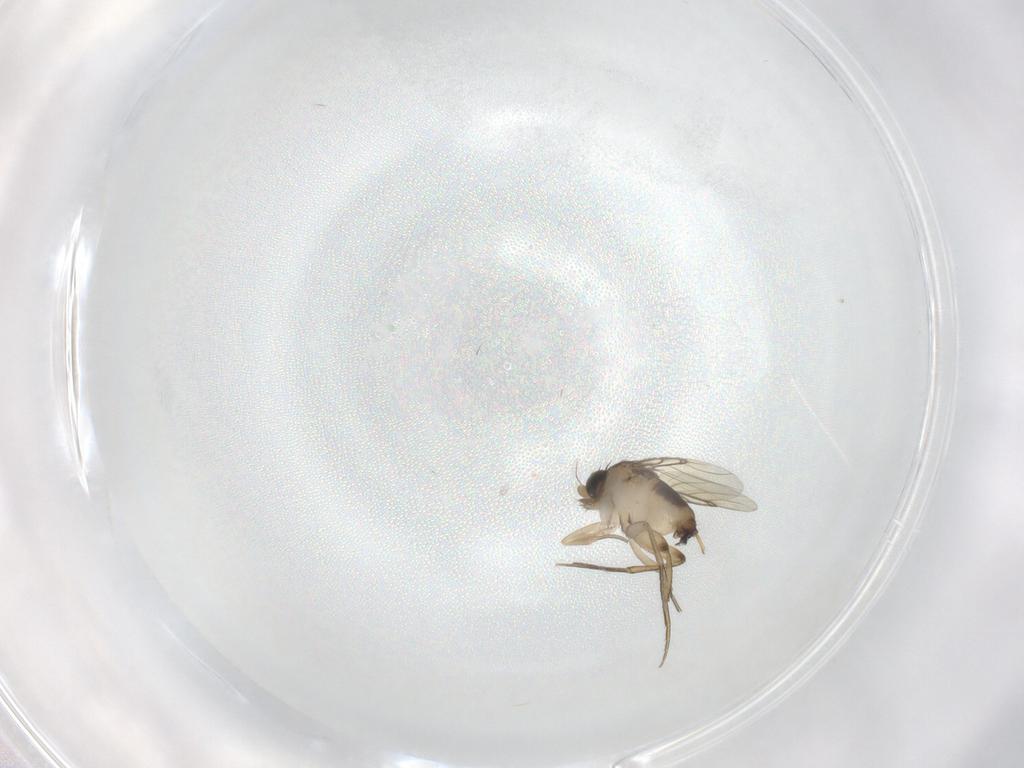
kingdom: Animalia
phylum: Arthropoda
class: Insecta
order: Diptera
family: Phoridae
